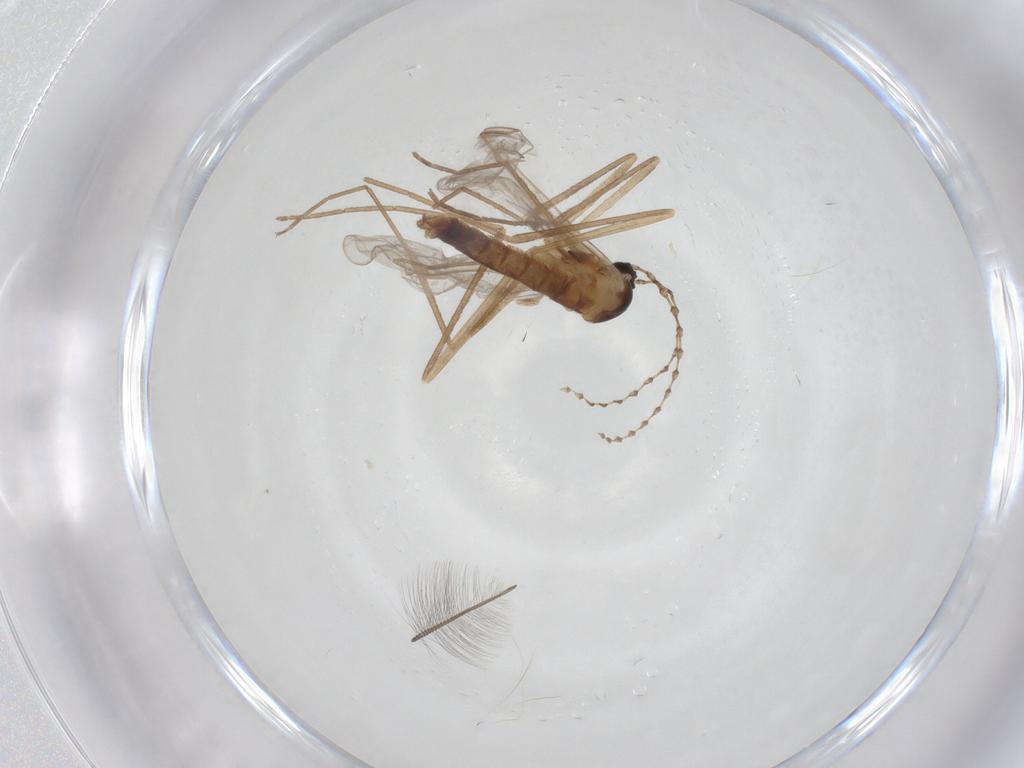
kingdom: Animalia
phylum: Arthropoda
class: Insecta
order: Diptera
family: Cecidomyiidae
